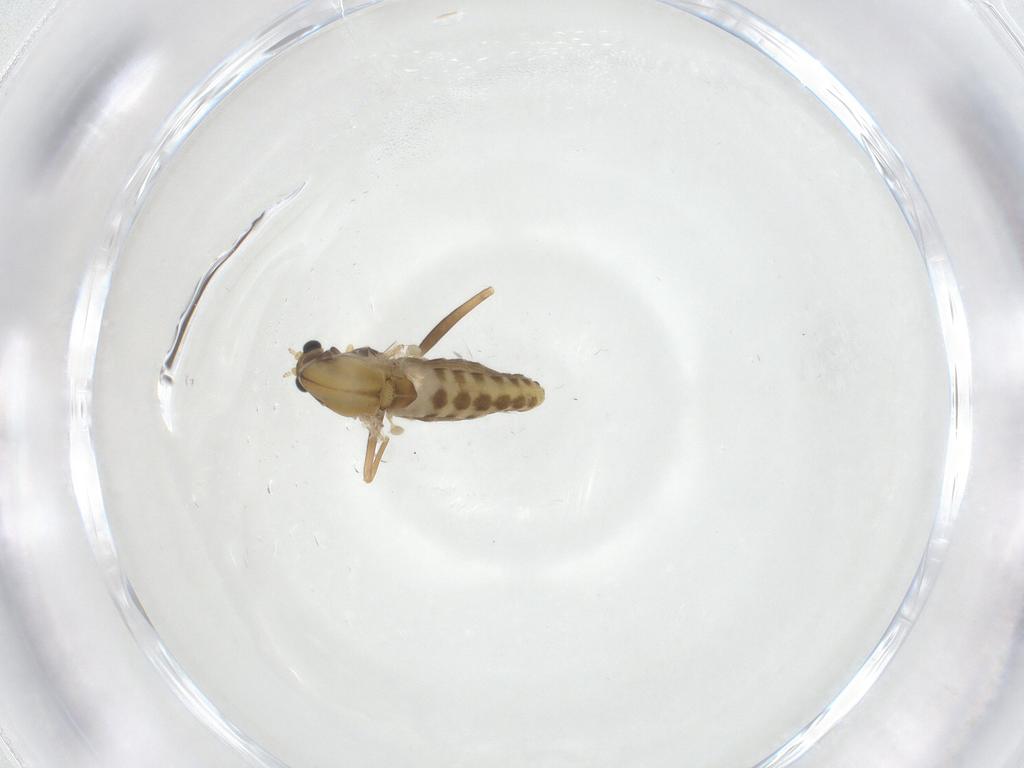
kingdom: Animalia
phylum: Arthropoda
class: Insecta
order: Diptera
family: Chironomidae
